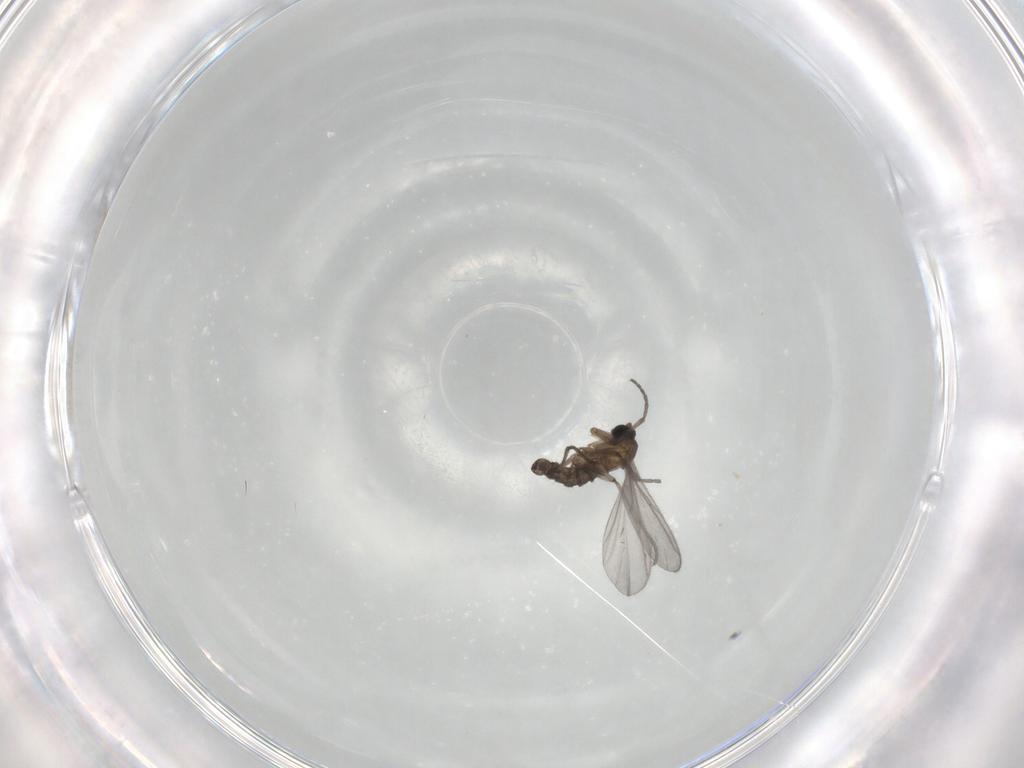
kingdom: Animalia
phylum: Arthropoda
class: Insecta
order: Diptera
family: Sciaridae
